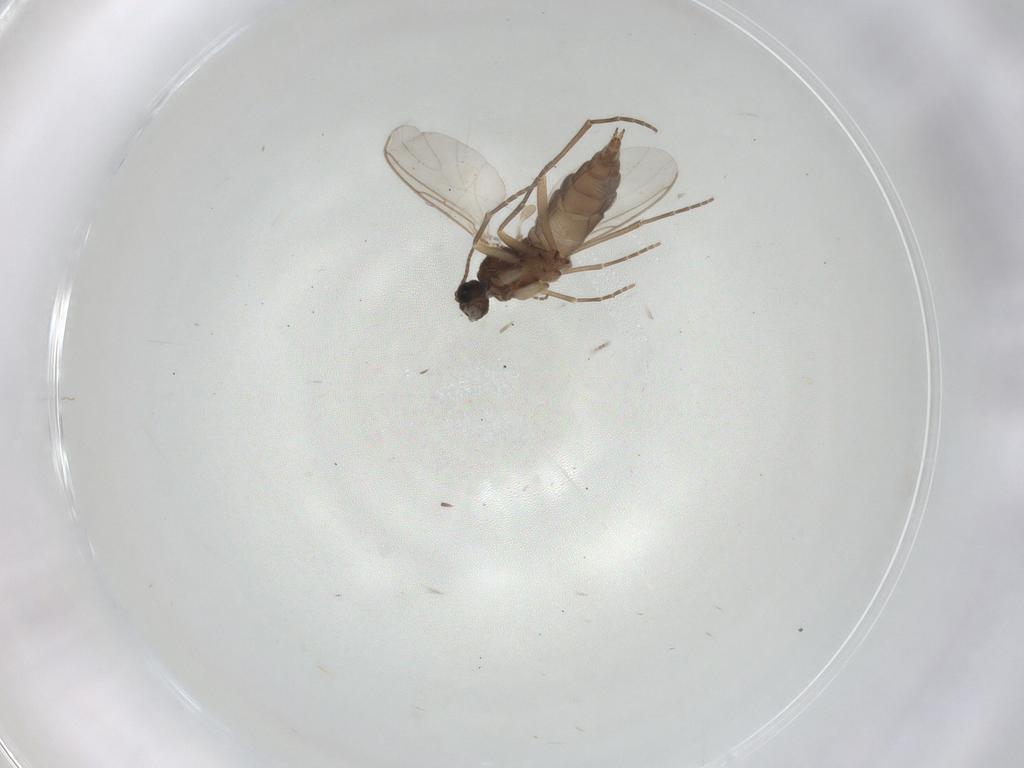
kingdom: Animalia
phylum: Arthropoda
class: Insecta
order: Diptera
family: Sciaridae
